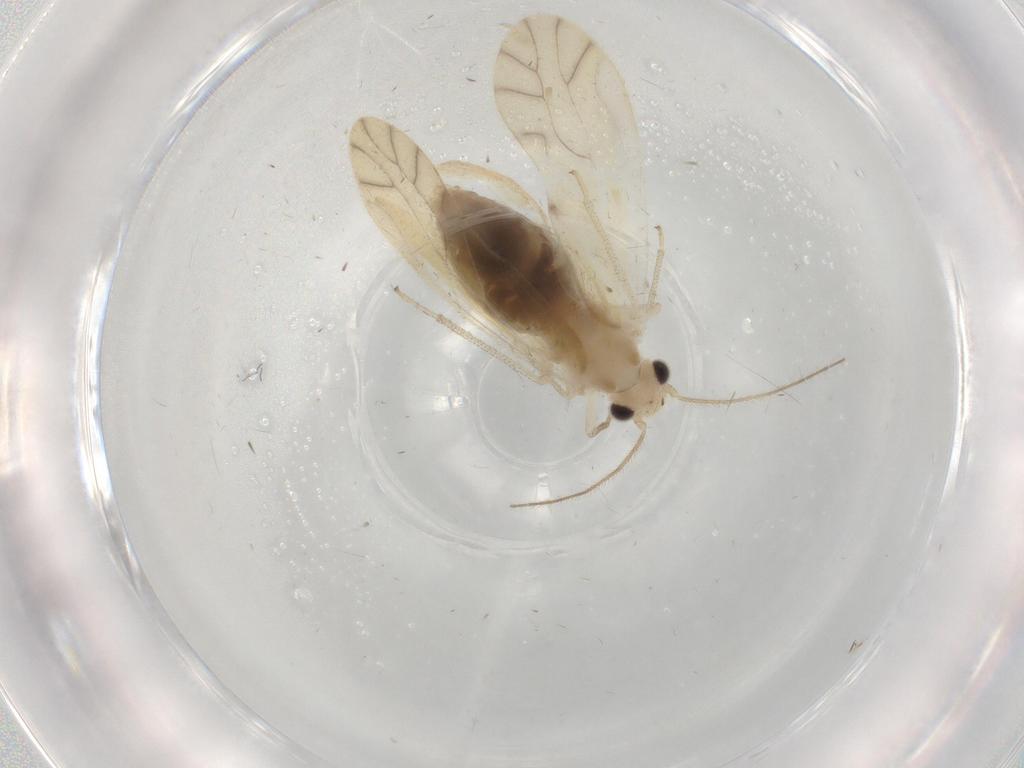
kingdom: Animalia
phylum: Arthropoda
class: Insecta
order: Psocodea
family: Caeciliusidae
